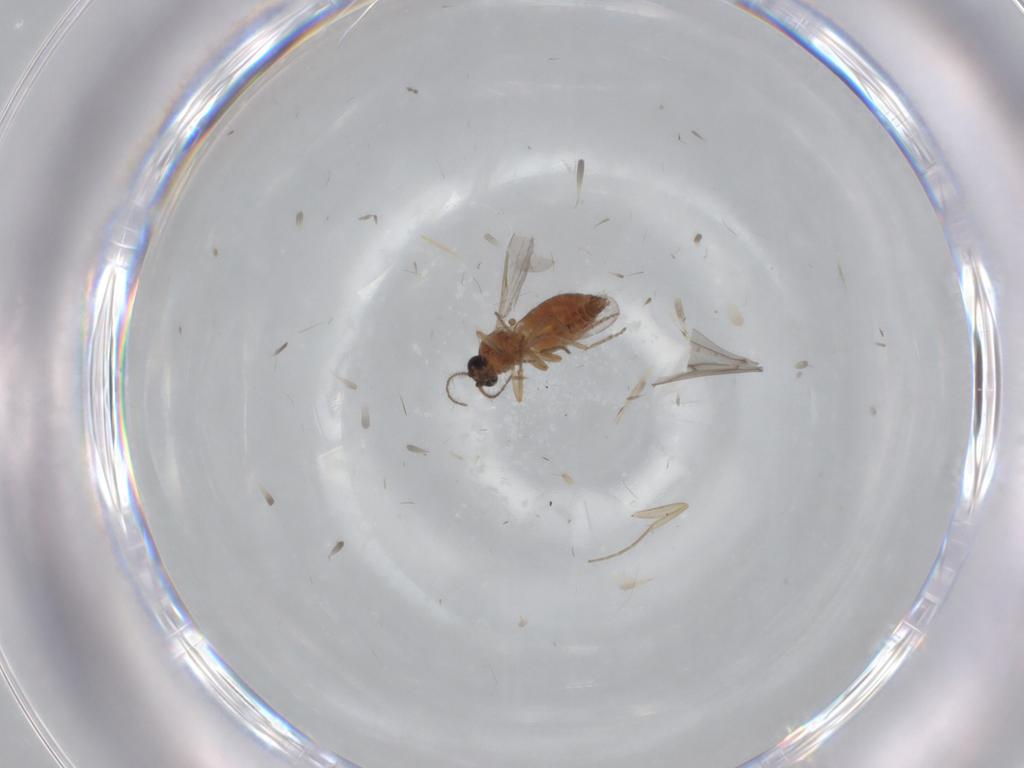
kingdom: Animalia
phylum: Arthropoda
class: Insecta
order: Diptera
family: Ceratopogonidae
